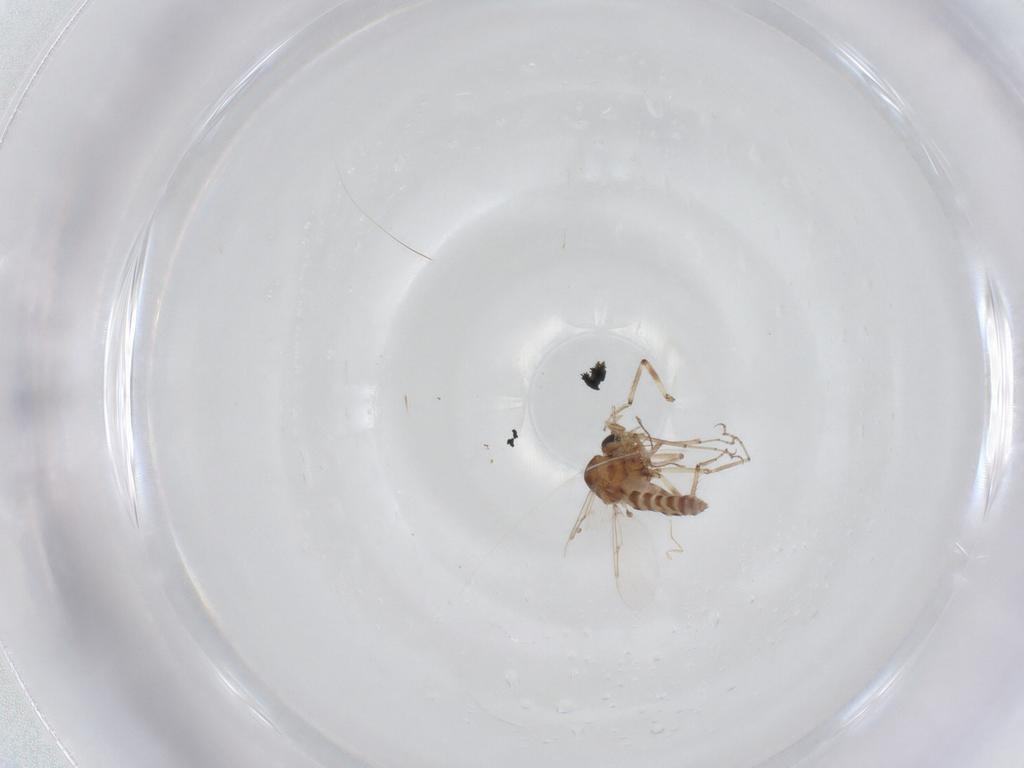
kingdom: Animalia
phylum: Arthropoda
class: Insecta
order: Diptera
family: Ceratopogonidae
